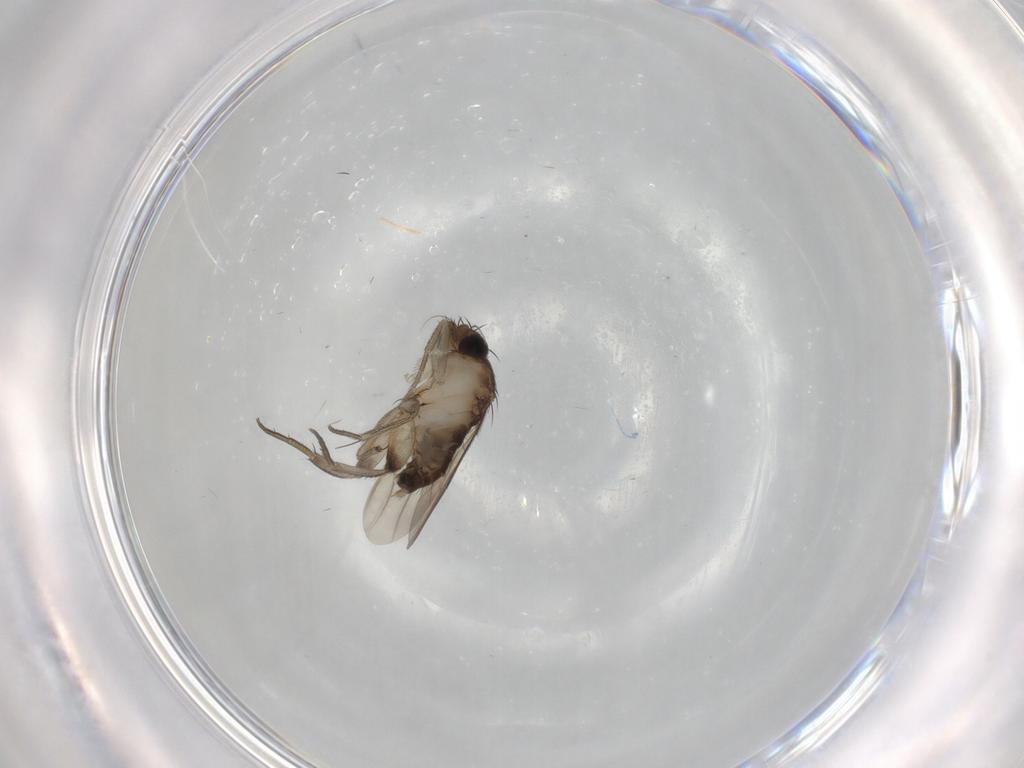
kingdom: Animalia
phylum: Arthropoda
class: Insecta
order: Diptera
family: Phoridae
